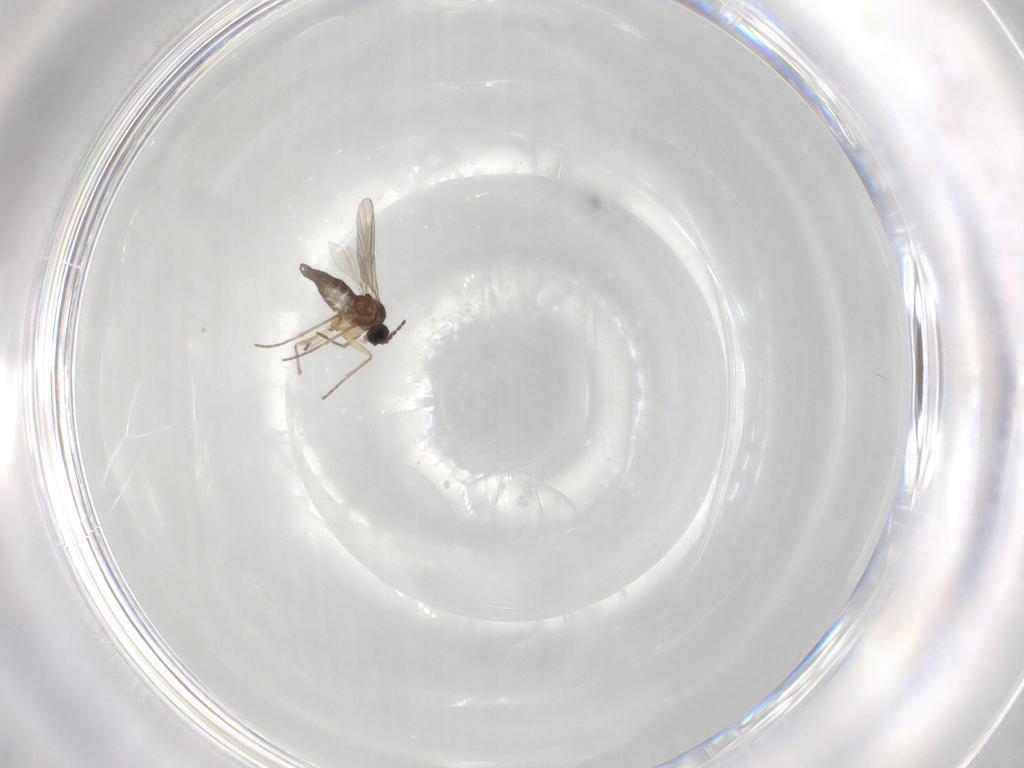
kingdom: Animalia
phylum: Arthropoda
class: Insecta
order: Diptera
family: Sciaridae
